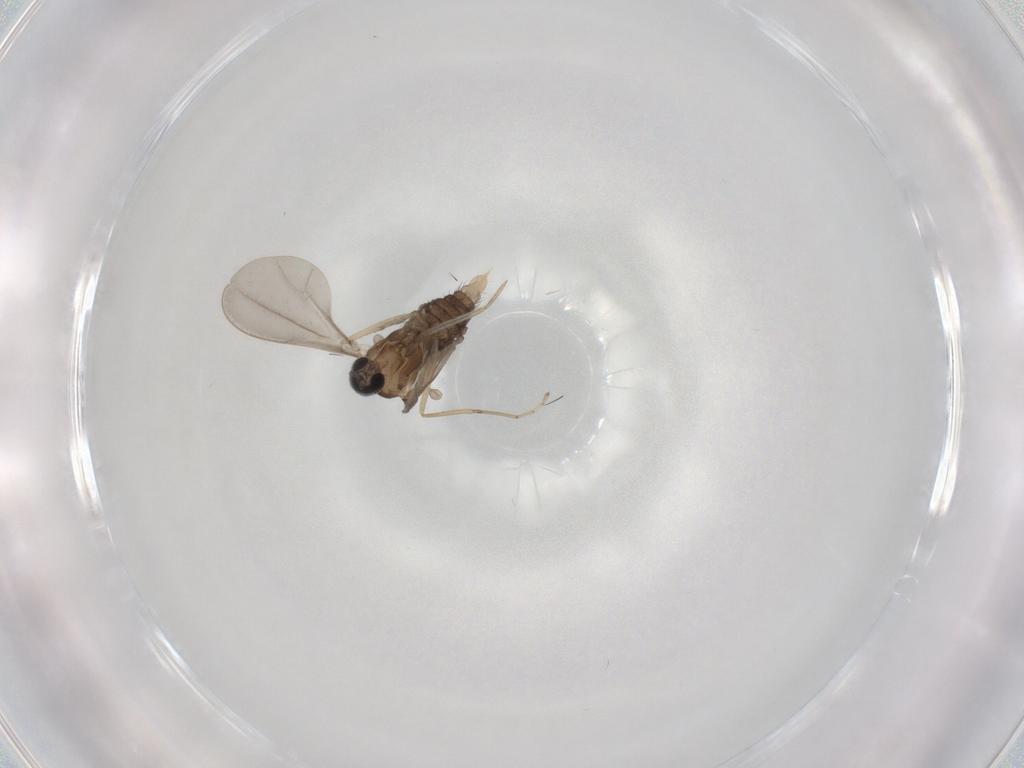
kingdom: Animalia
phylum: Arthropoda
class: Insecta
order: Diptera
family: Cecidomyiidae
